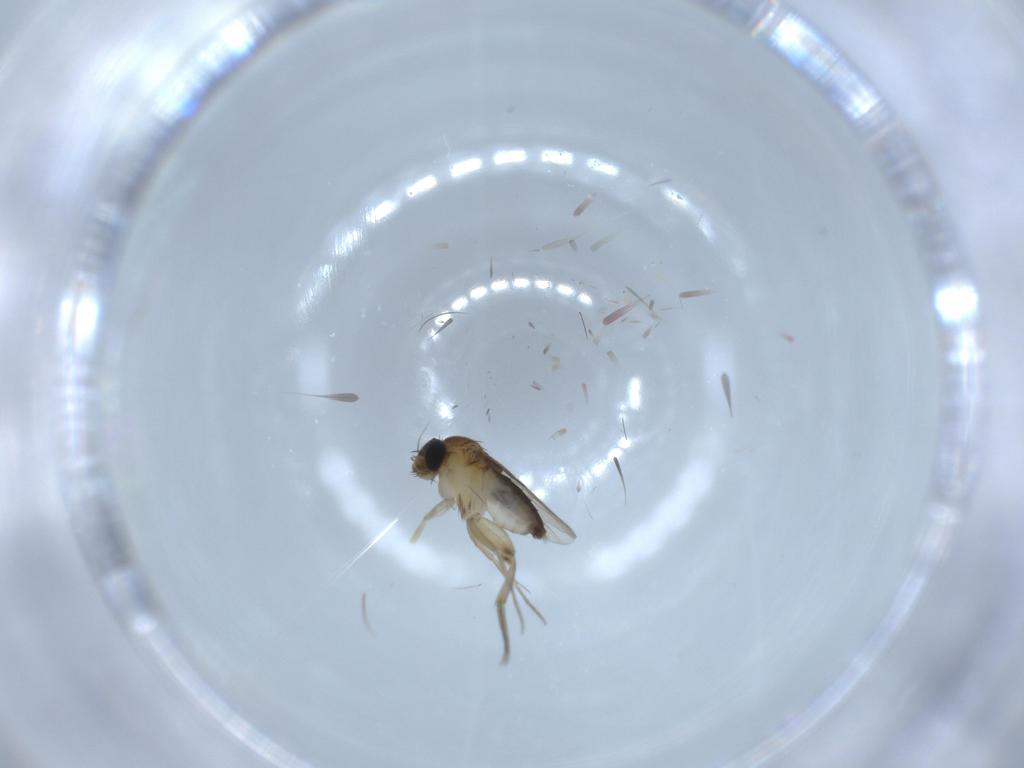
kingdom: Animalia
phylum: Arthropoda
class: Insecta
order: Diptera
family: Phoridae
